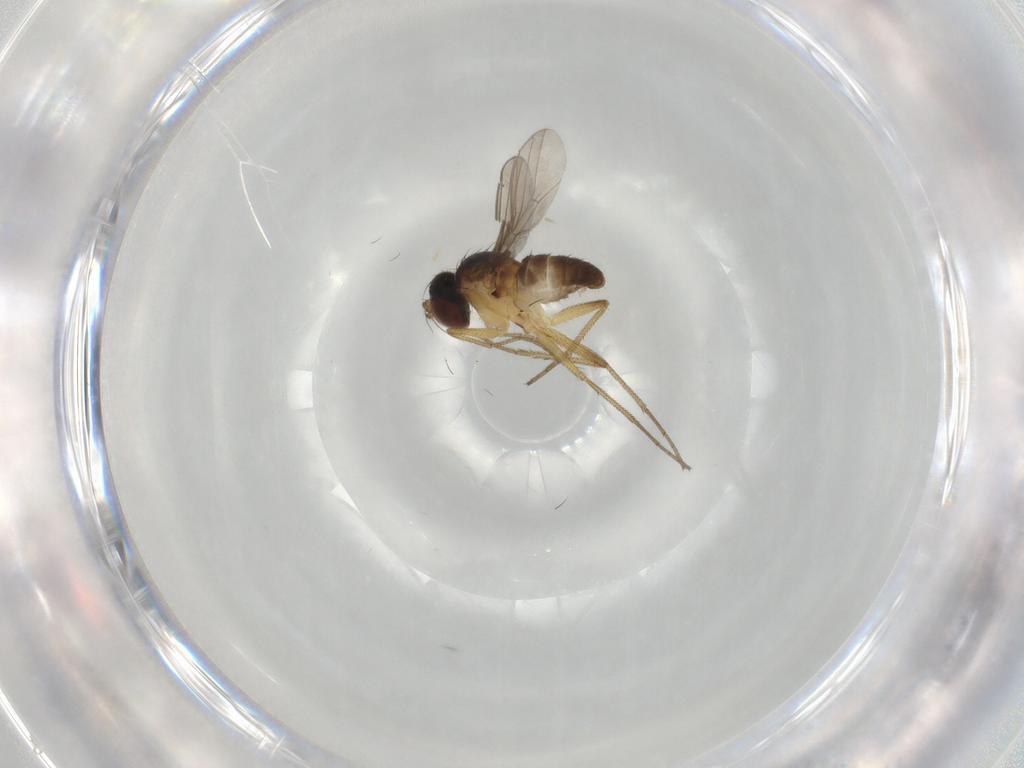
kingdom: Animalia
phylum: Arthropoda
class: Insecta
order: Diptera
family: Dolichopodidae
